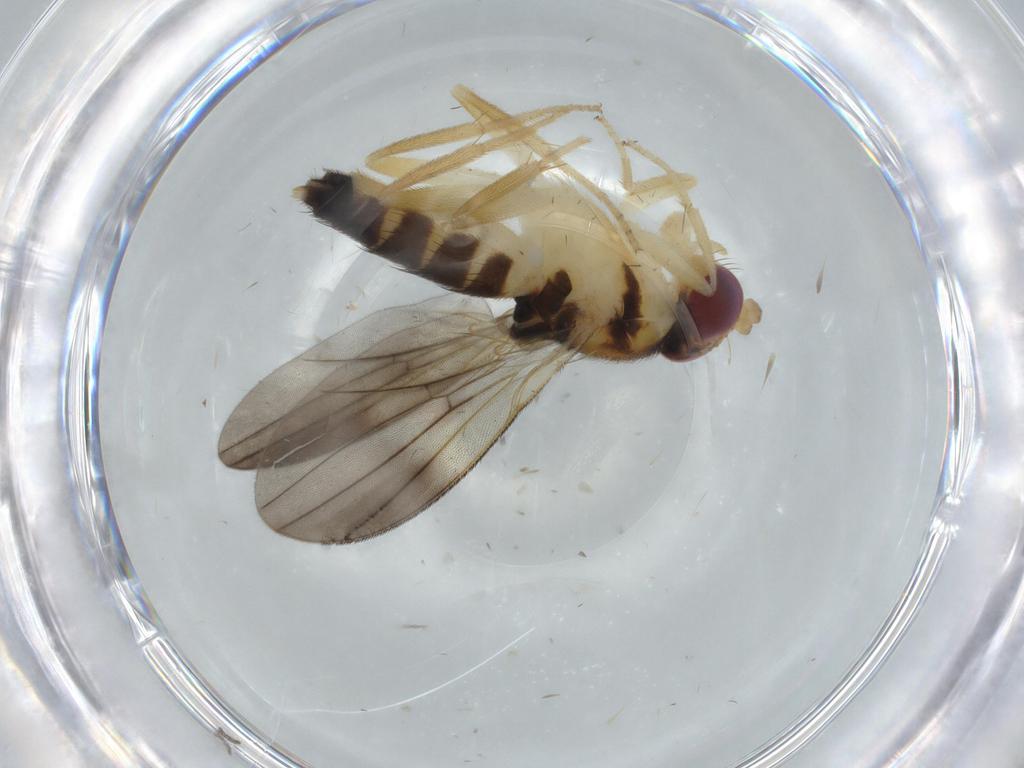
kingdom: Animalia
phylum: Arthropoda
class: Insecta
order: Diptera
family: Clusiidae
